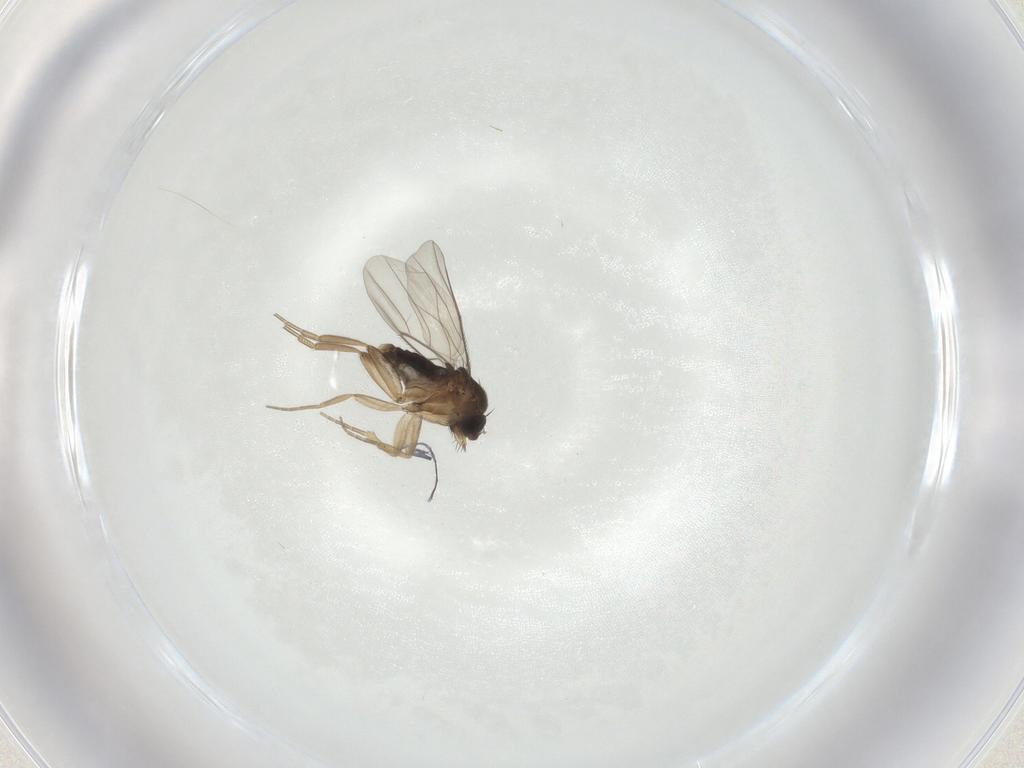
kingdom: Animalia
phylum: Arthropoda
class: Insecta
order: Diptera
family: Phoridae
